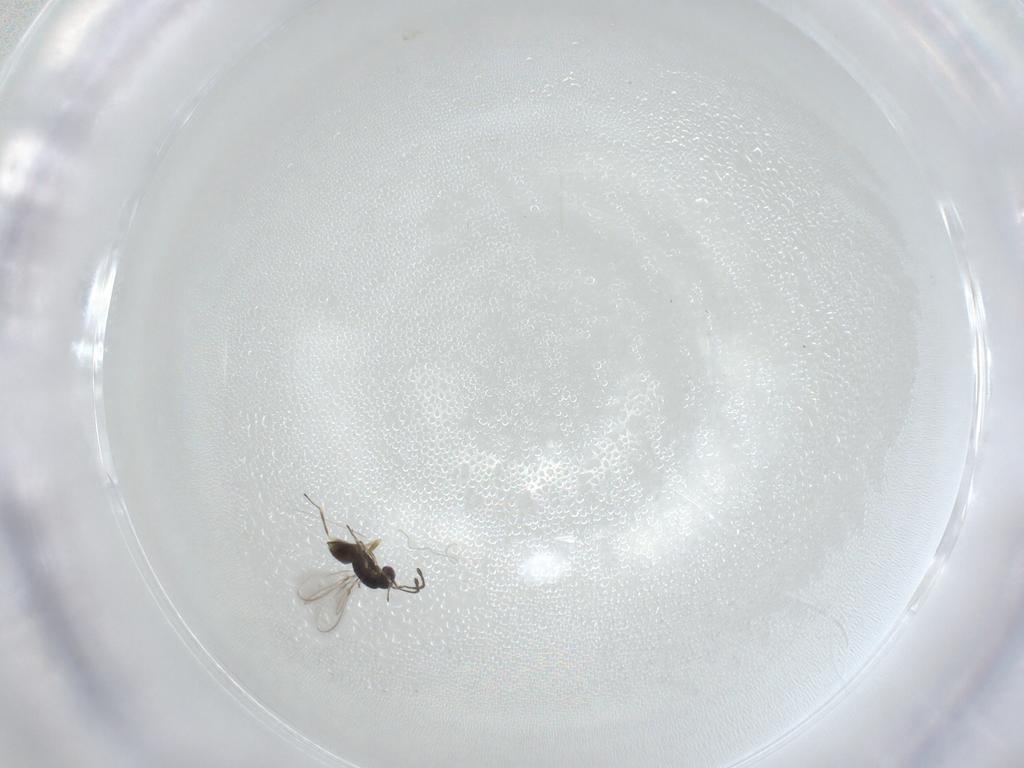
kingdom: Animalia
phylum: Arthropoda
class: Insecta
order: Hymenoptera
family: Mymaridae
